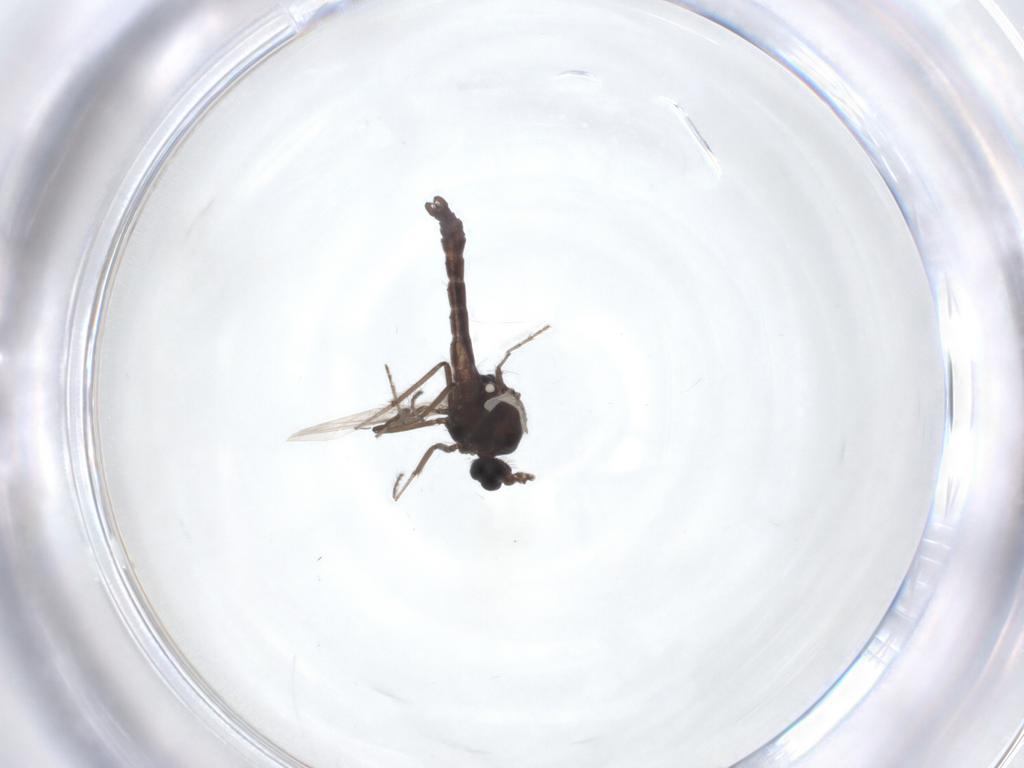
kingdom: Animalia
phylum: Arthropoda
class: Insecta
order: Diptera
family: Ceratopogonidae
